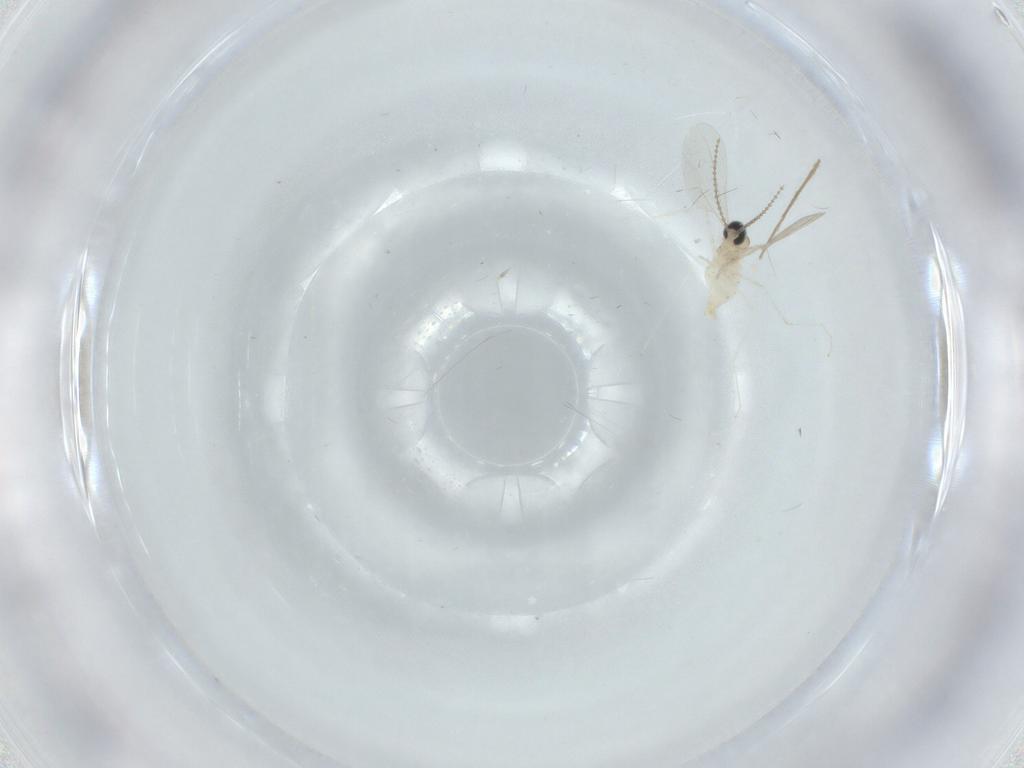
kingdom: Animalia
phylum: Arthropoda
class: Insecta
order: Diptera
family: Cecidomyiidae
